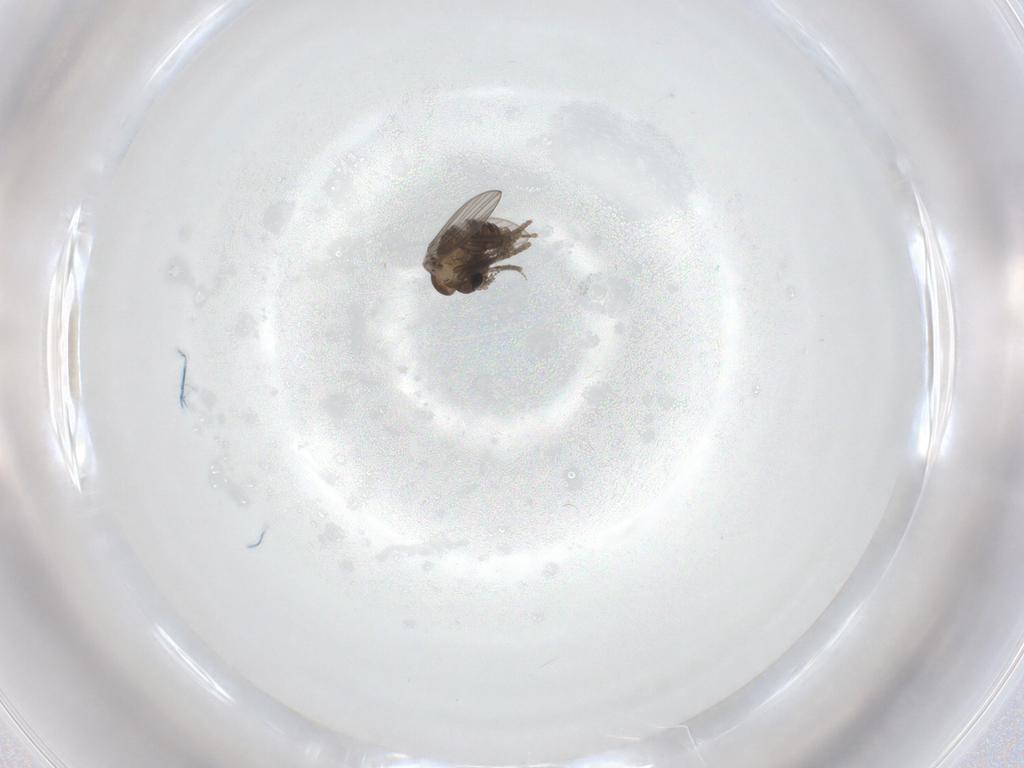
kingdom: Animalia
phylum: Arthropoda
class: Insecta
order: Diptera
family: Psychodidae
